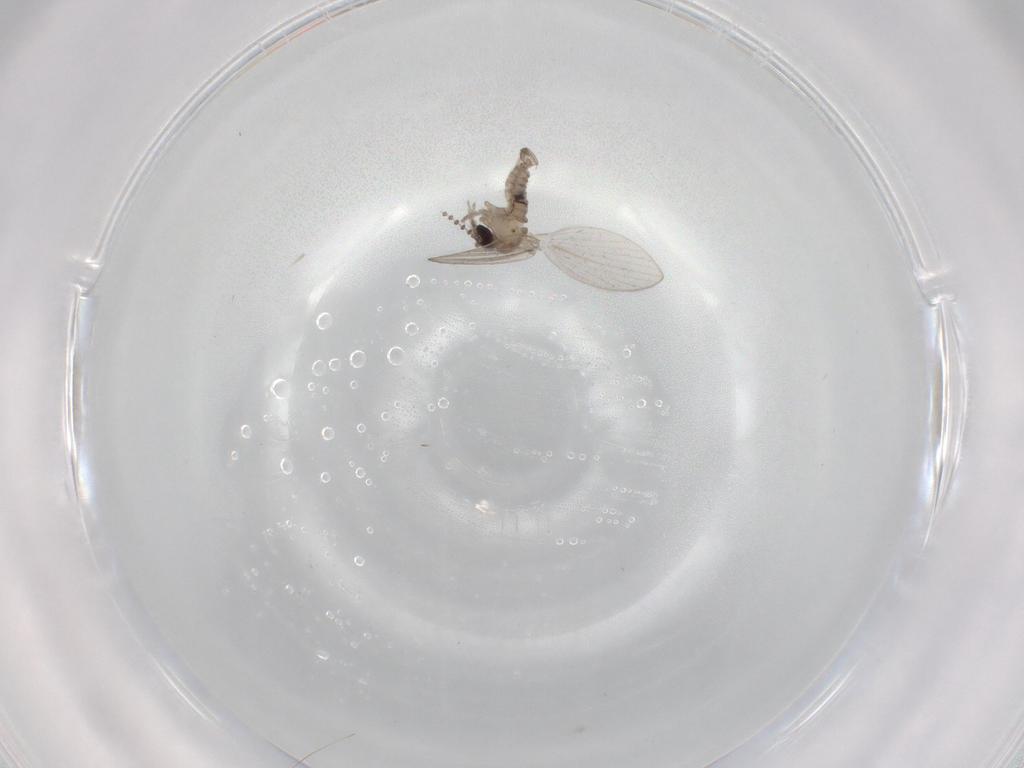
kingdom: Animalia
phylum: Arthropoda
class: Insecta
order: Diptera
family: Psychodidae
